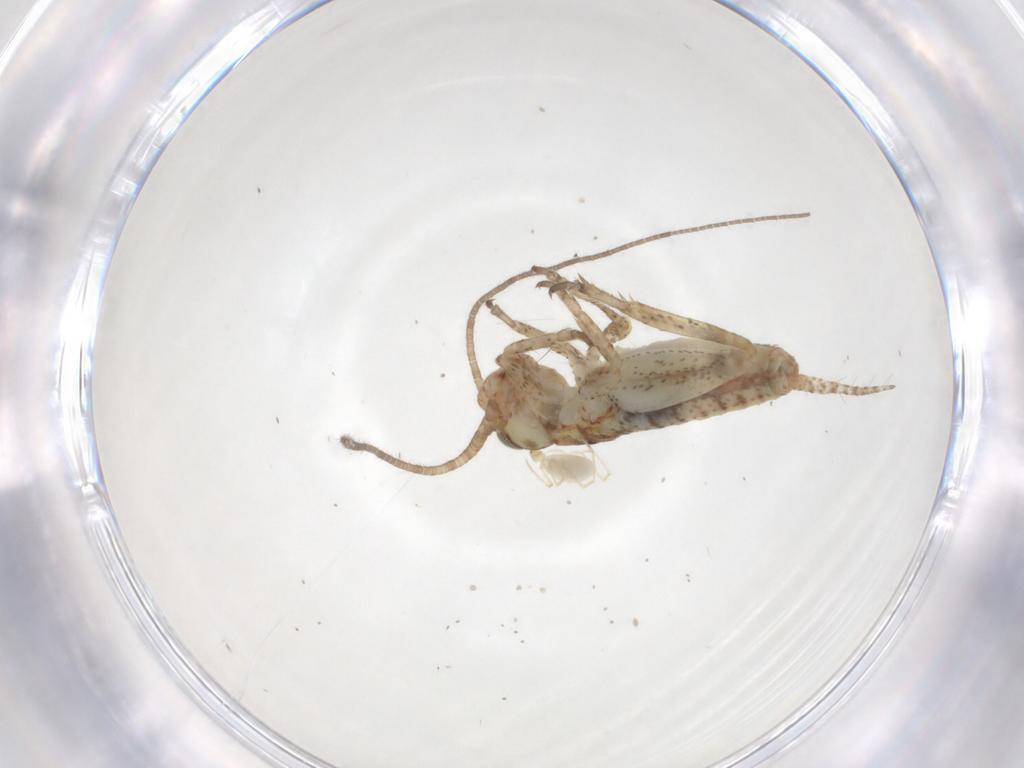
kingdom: Animalia
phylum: Arthropoda
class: Insecta
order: Orthoptera
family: Mogoplistidae
